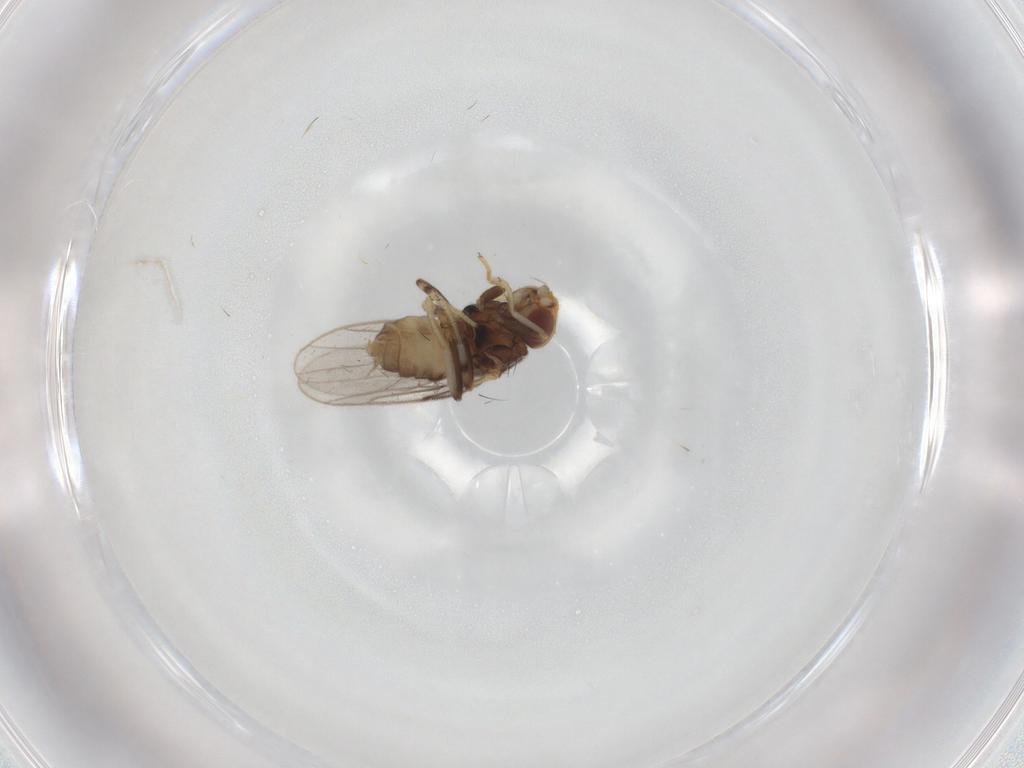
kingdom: Animalia
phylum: Arthropoda
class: Insecta
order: Diptera
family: Chloropidae
